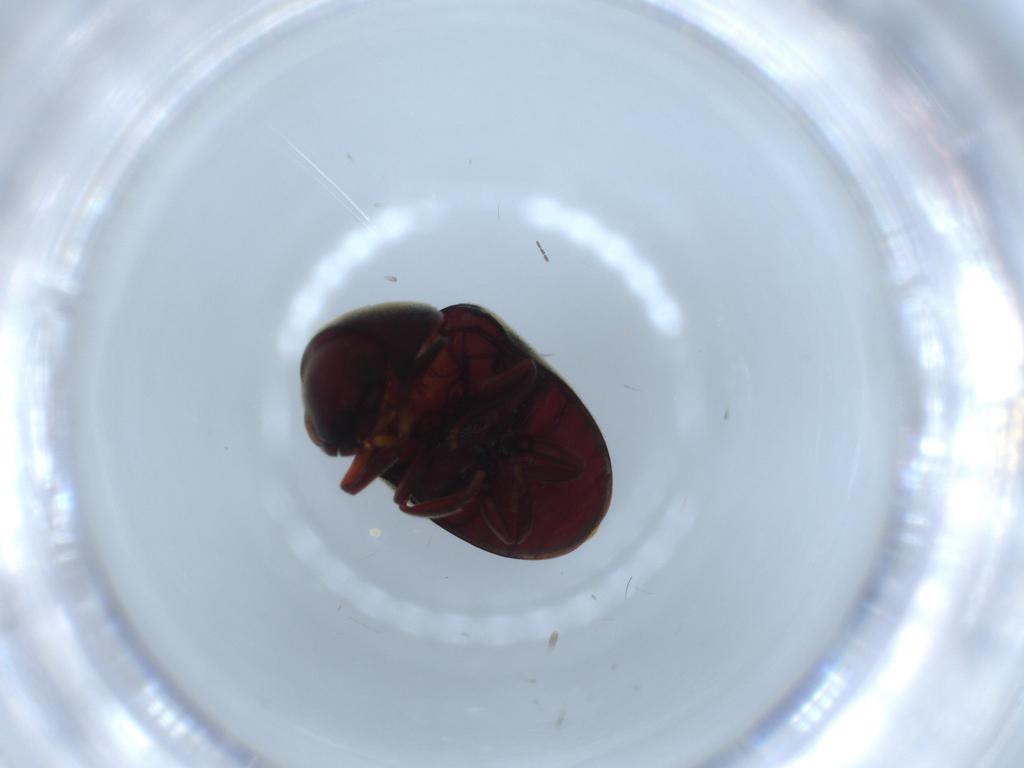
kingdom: Animalia
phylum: Arthropoda
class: Insecta
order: Coleoptera
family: Ptinidae
